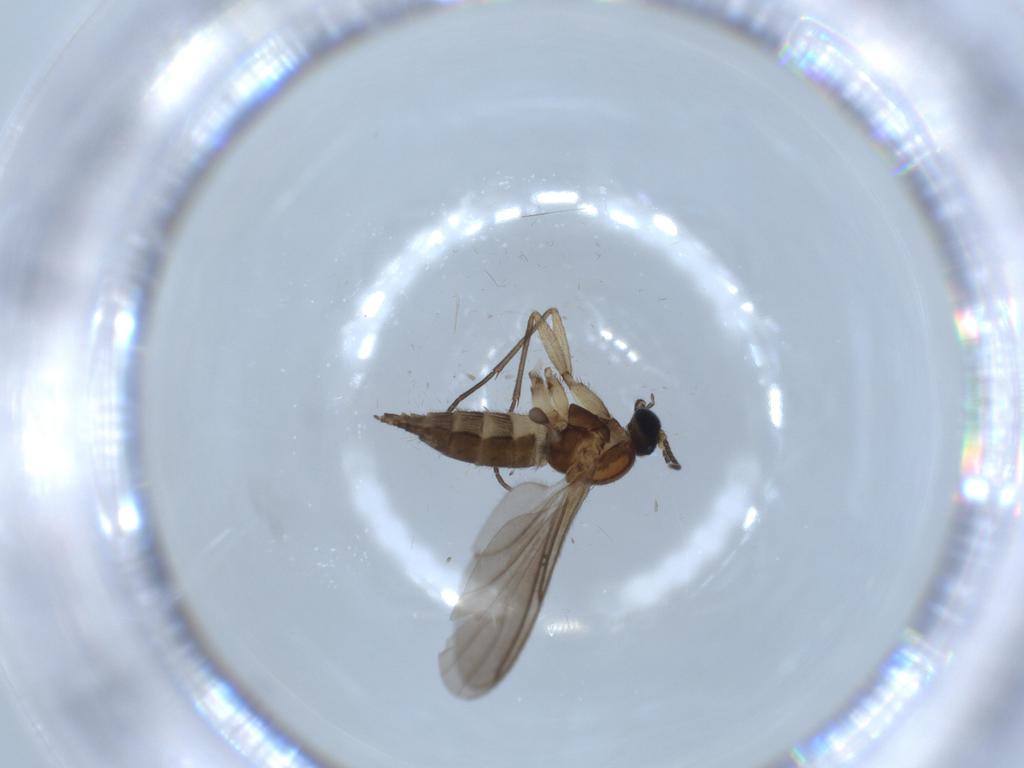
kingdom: Animalia
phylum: Arthropoda
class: Insecta
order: Diptera
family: Sciaridae
